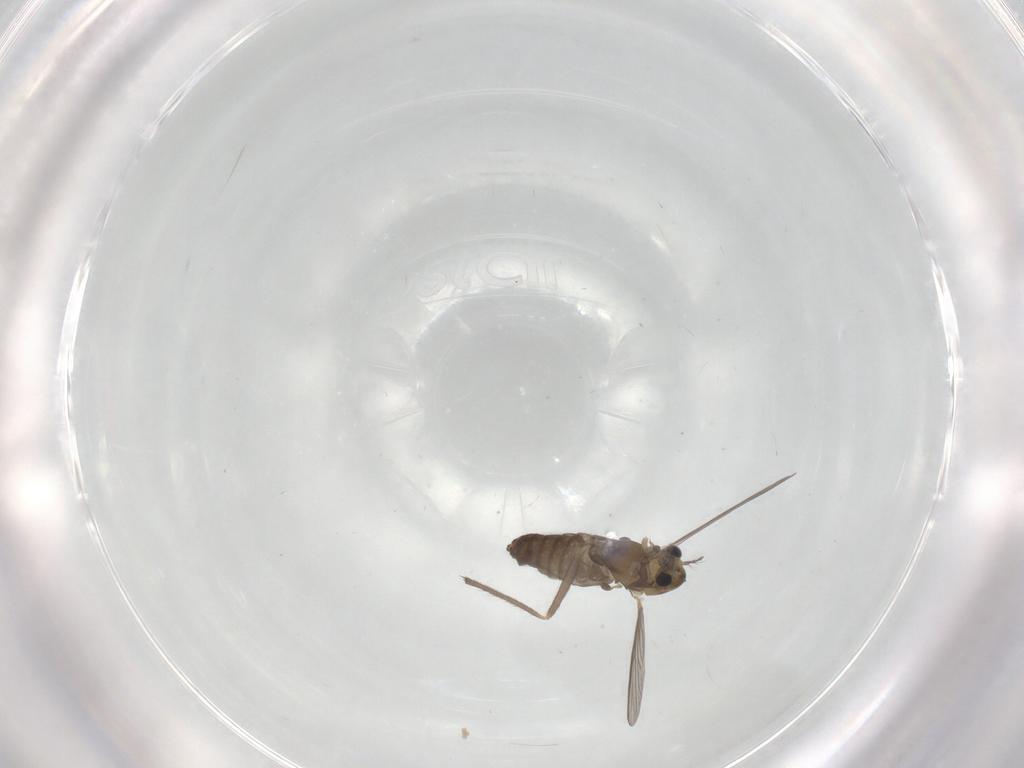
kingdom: Animalia
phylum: Arthropoda
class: Insecta
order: Diptera
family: Chironomidae
